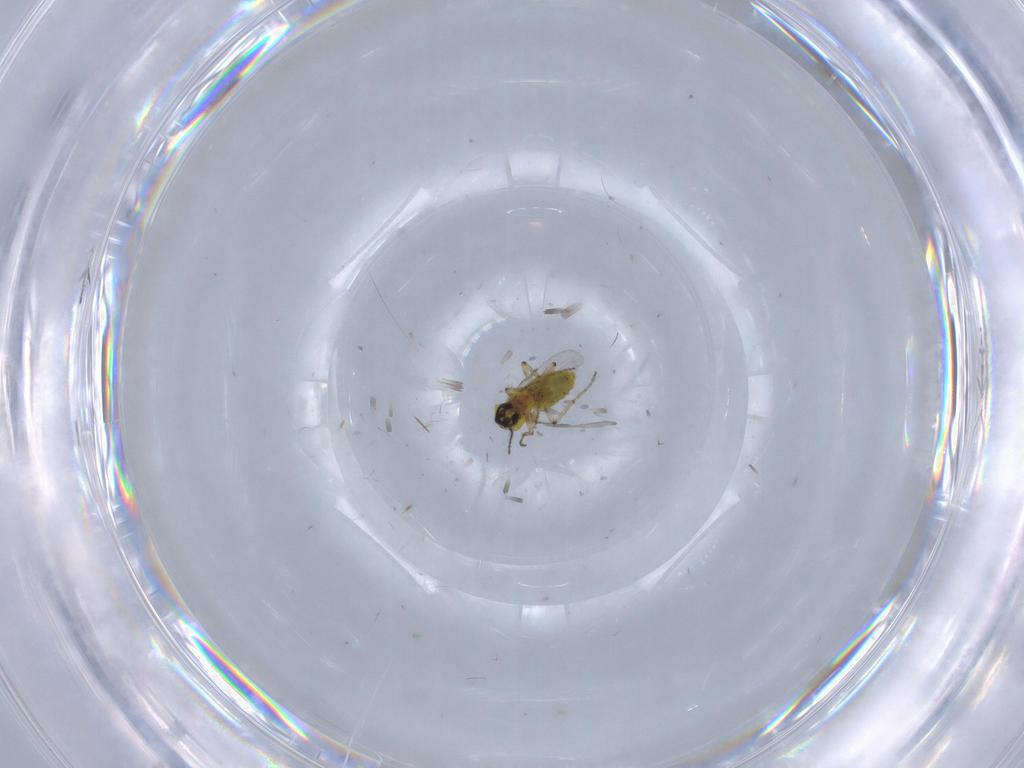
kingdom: Animalia
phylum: Arthropoda
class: Insecta
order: Diptera
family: Ceratopogonidae
